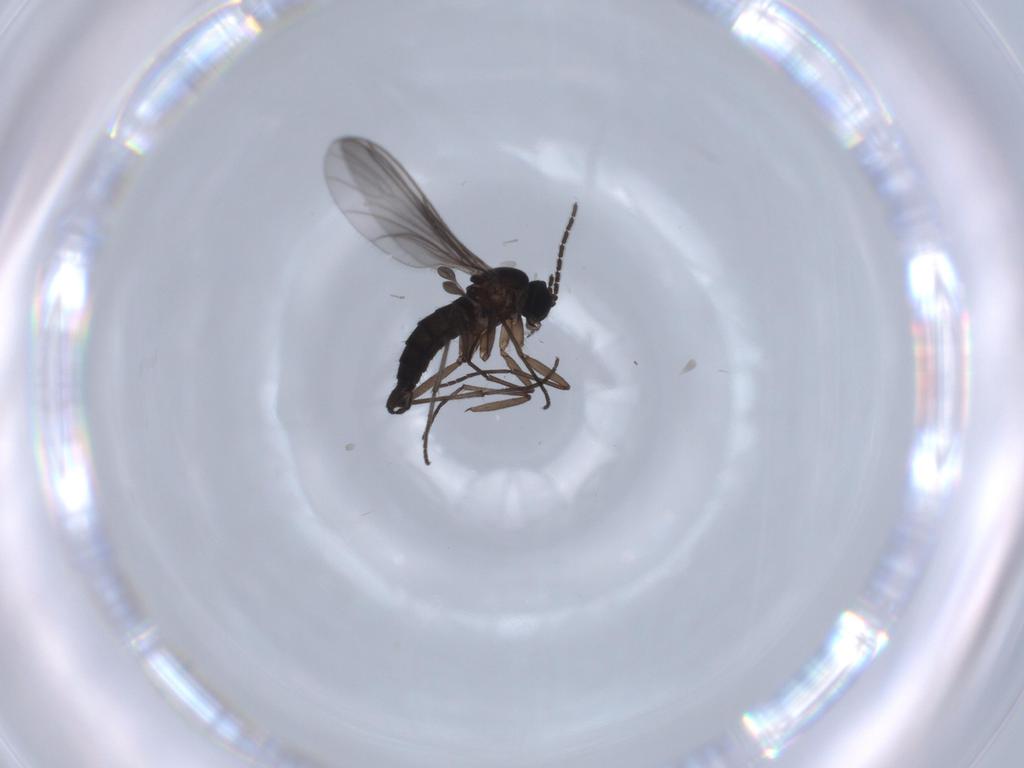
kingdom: Animalia
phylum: Arthropoda
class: Insecta
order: Diptera
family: Sciaridae
